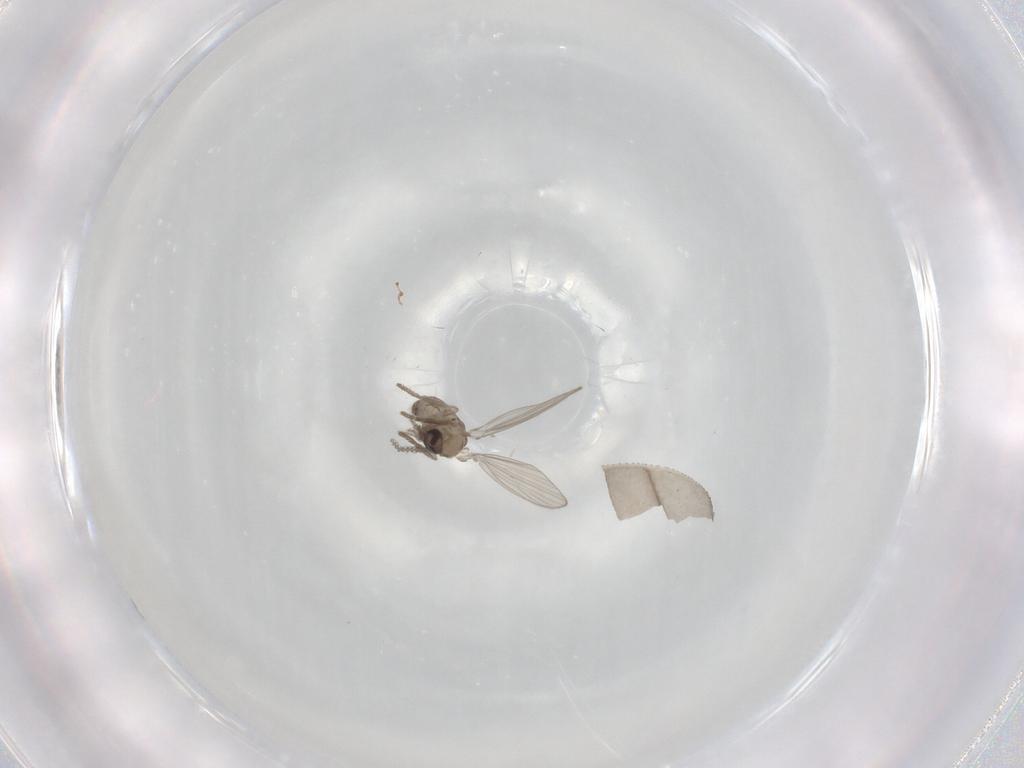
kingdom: Animalia
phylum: Arthropoda
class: Insecta
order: Diptera
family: Psychodidae
